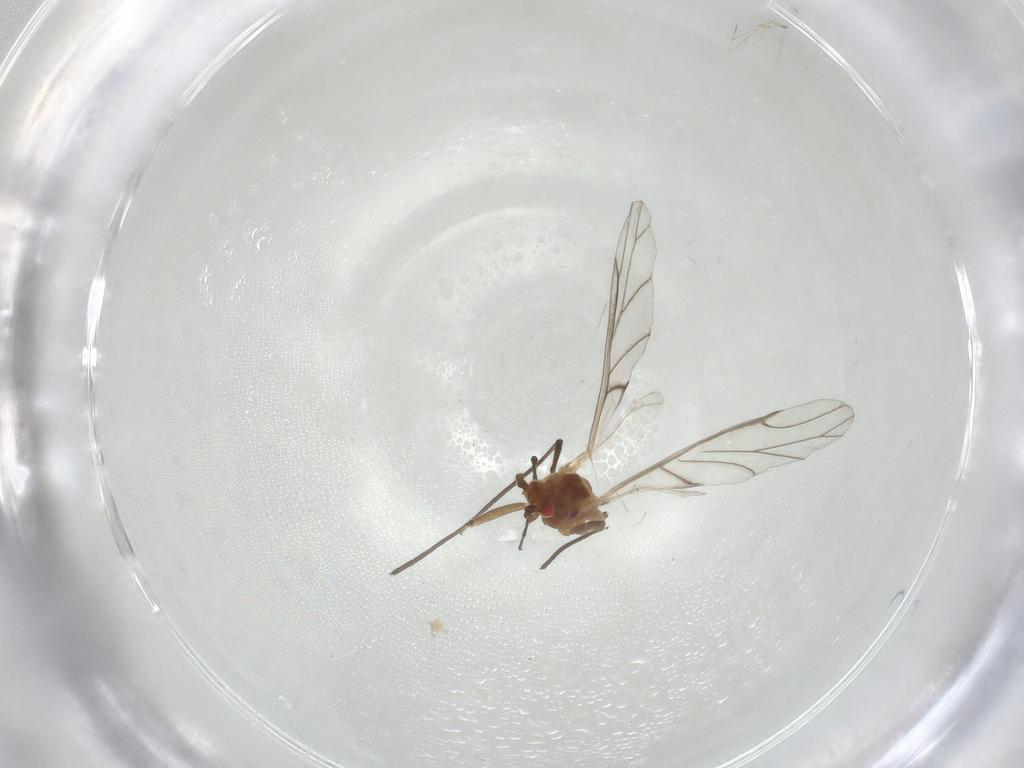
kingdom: Animalia
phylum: Arthropoda
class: Insecta
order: Hemiptera
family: Aphididae
